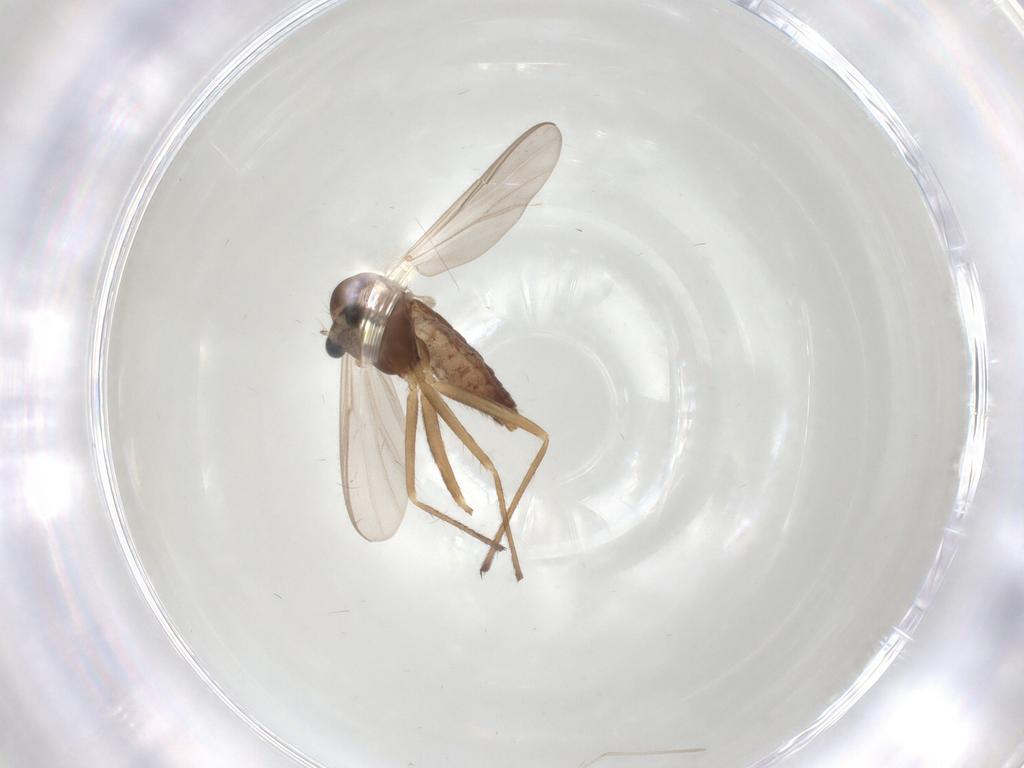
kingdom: Animalia
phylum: Arthropoda
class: Insecta
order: Diptera
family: Chironomidae
